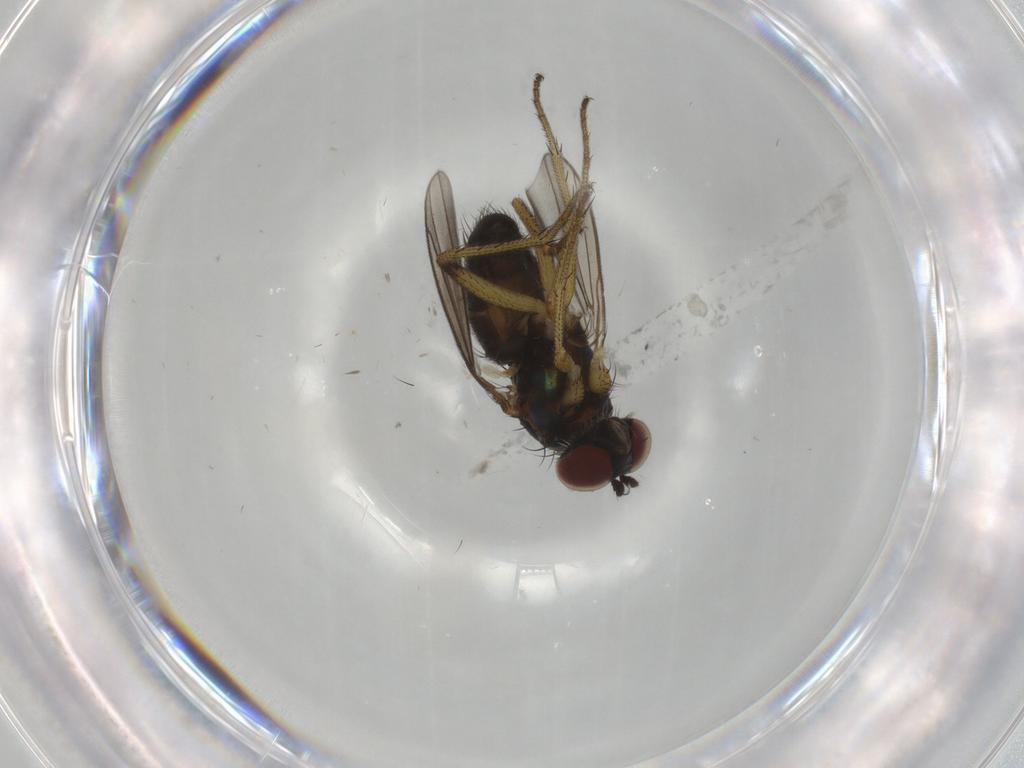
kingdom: Animalia
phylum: Arthropoda
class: Insecta
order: Diptera
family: Dolichopodidae
